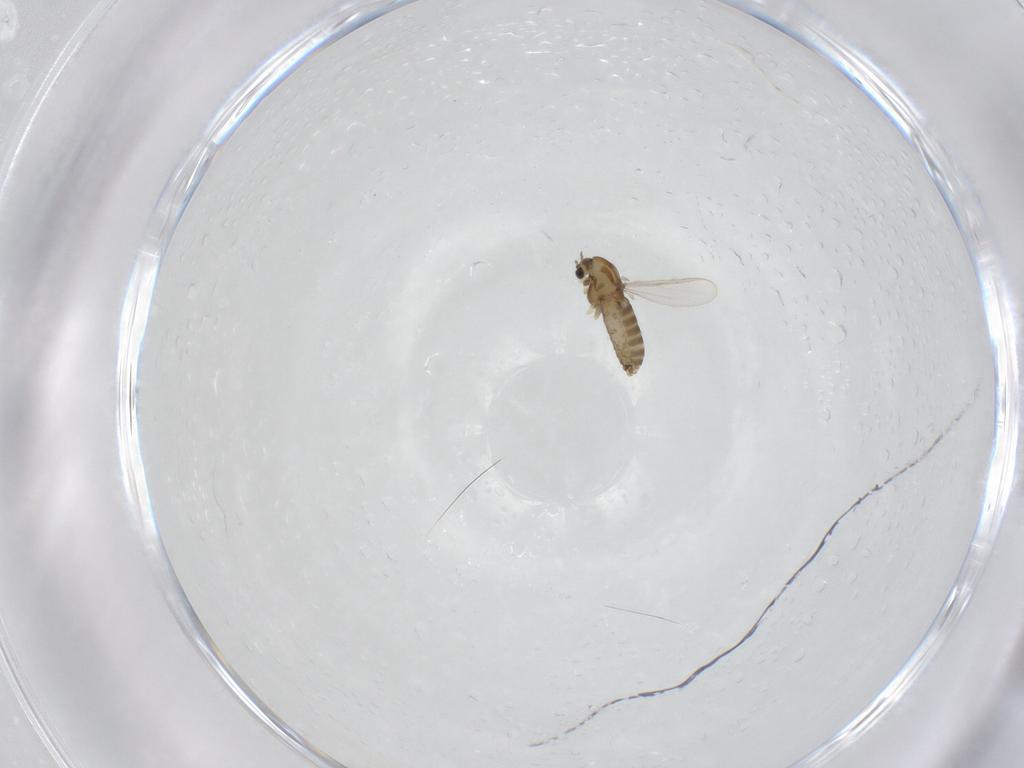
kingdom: Animalia
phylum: Arthropoda
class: Insecta
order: Diptera
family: Chironomidae
